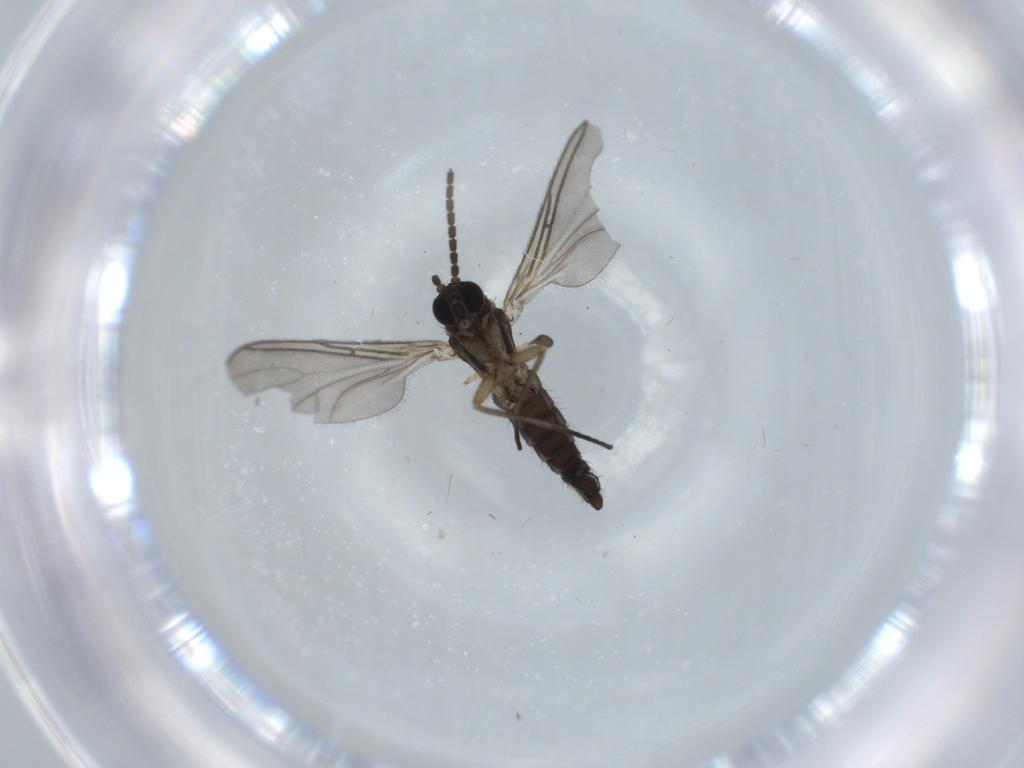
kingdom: Animalia
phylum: Arthropoda
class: Insecta
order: Diptera
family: Sciaridae
